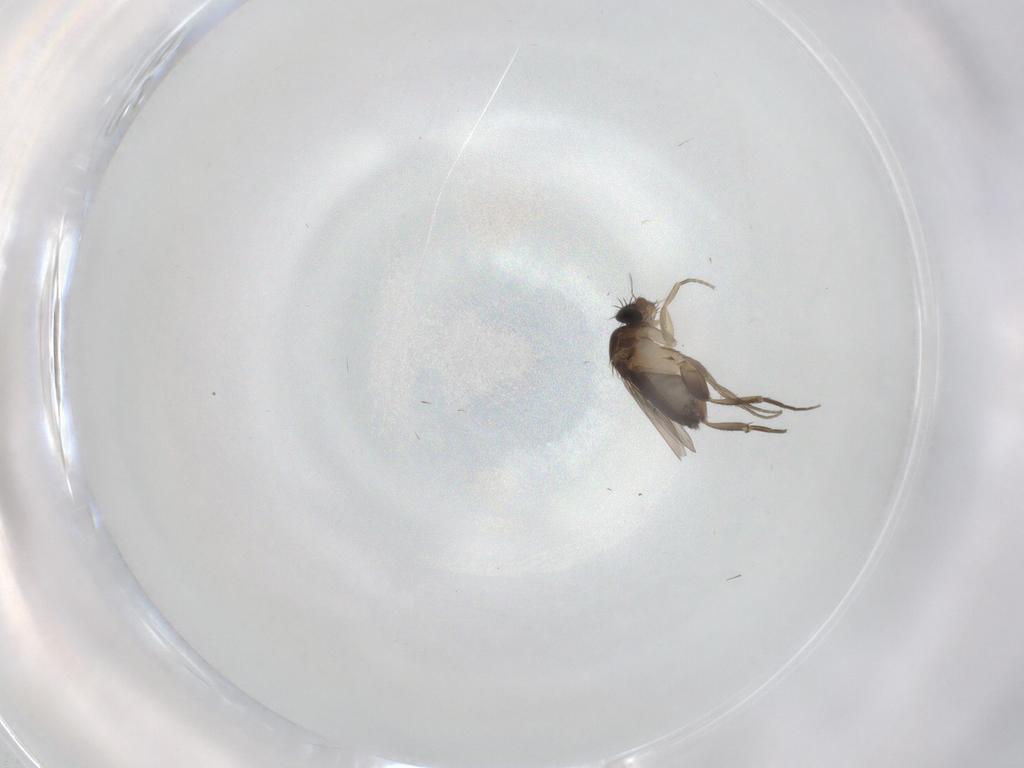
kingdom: Animalia
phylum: Arthropoda
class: Insecta
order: Diptera
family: Phoridae
